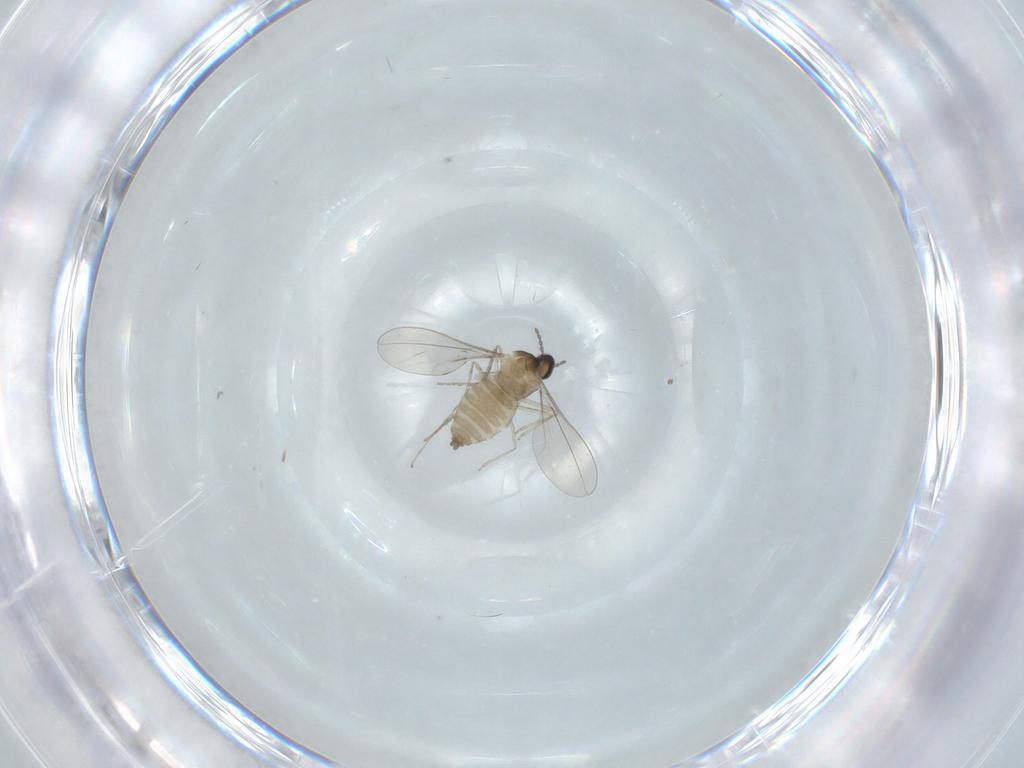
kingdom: Animalia
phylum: Arthropoda
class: Insecta
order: Diptera
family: Cecidomyiidae
